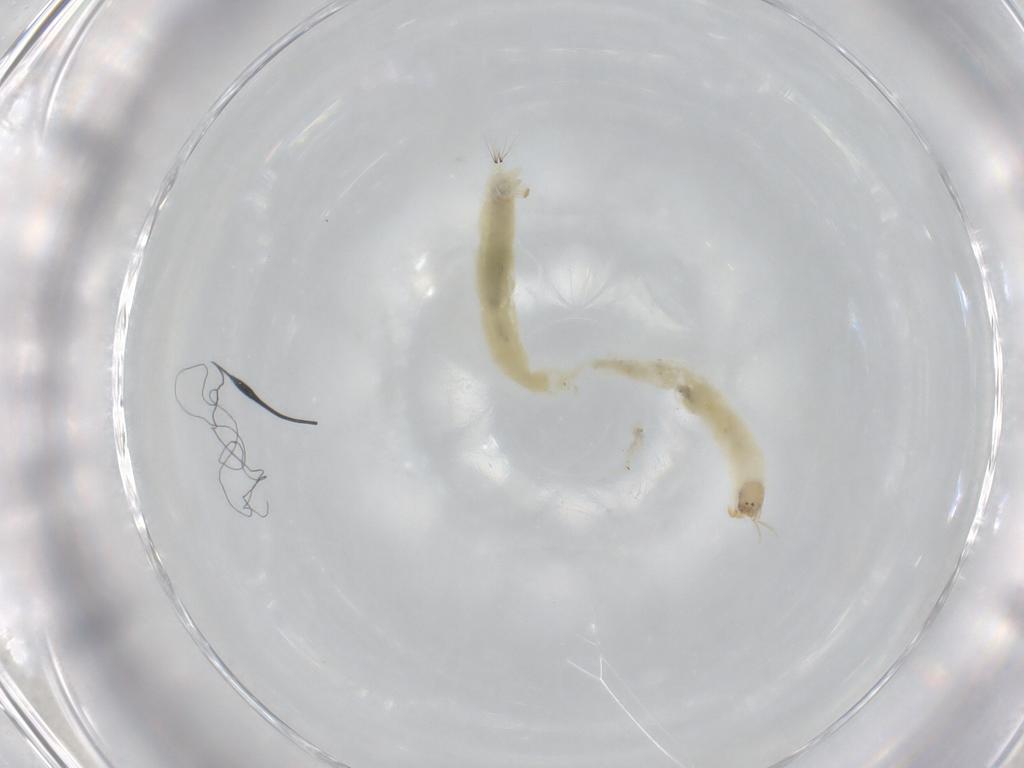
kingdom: Animalia
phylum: Arthropoda
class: Insecta
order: Diptera
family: Chironomidae
